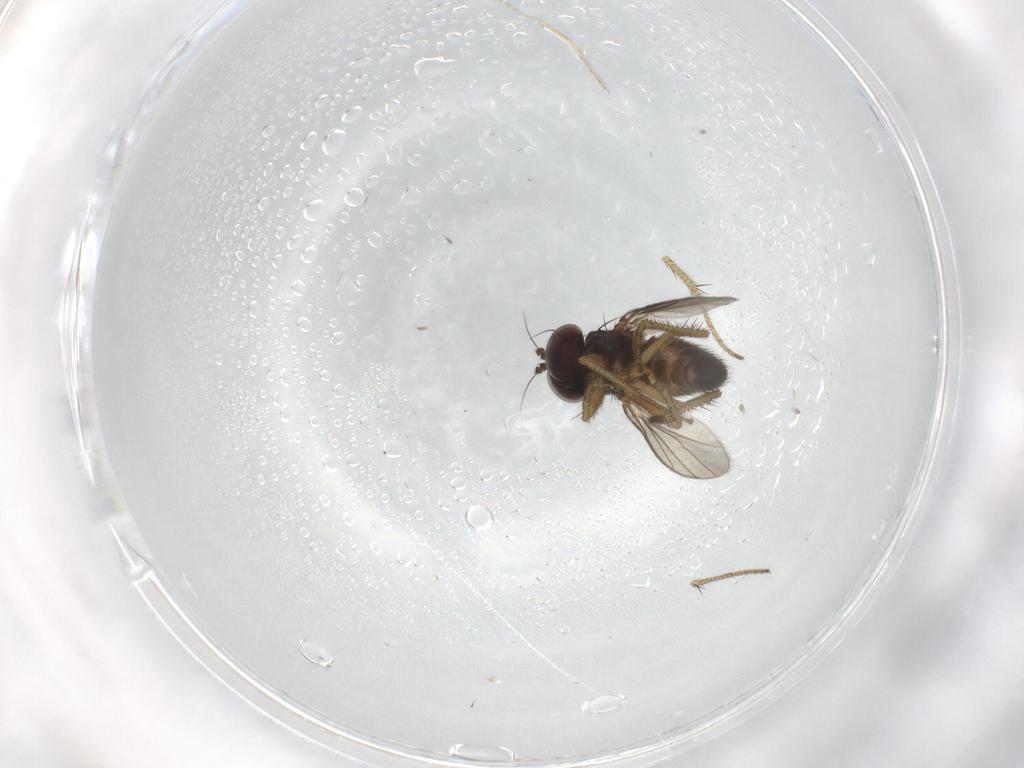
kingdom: Animalia
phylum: Arthropoda
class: Insecta
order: Diptera
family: Dolichopodidae
